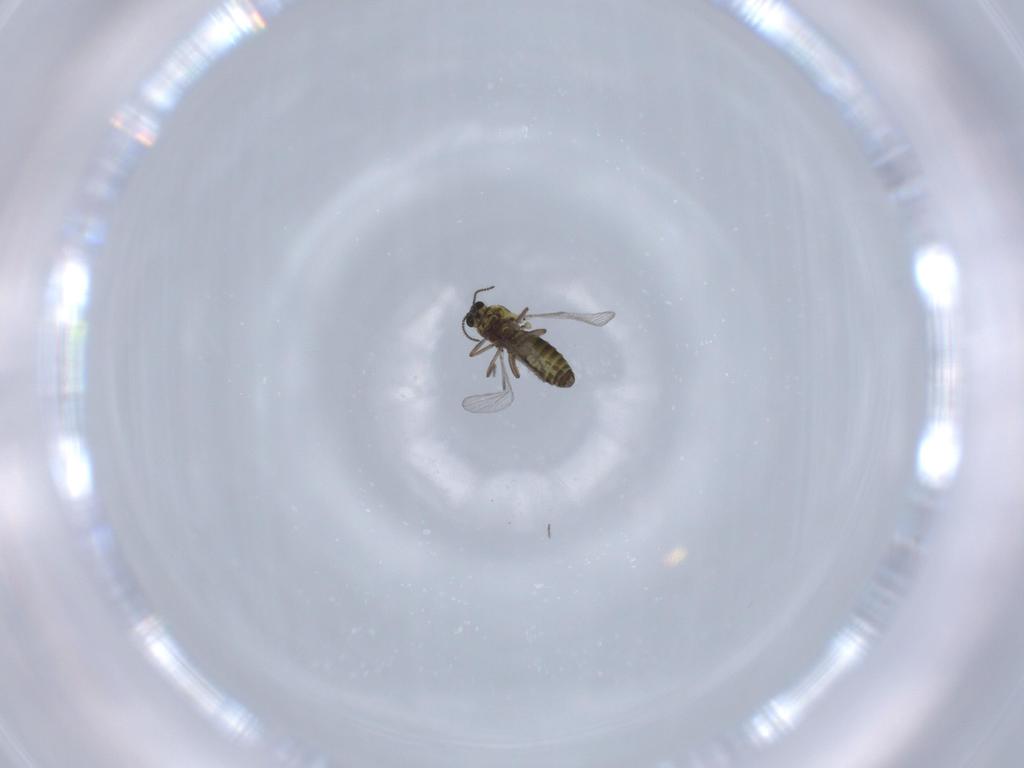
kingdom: Animalia
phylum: Arthropoda
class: Insecta
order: Diptera
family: Ceratopogonidae
